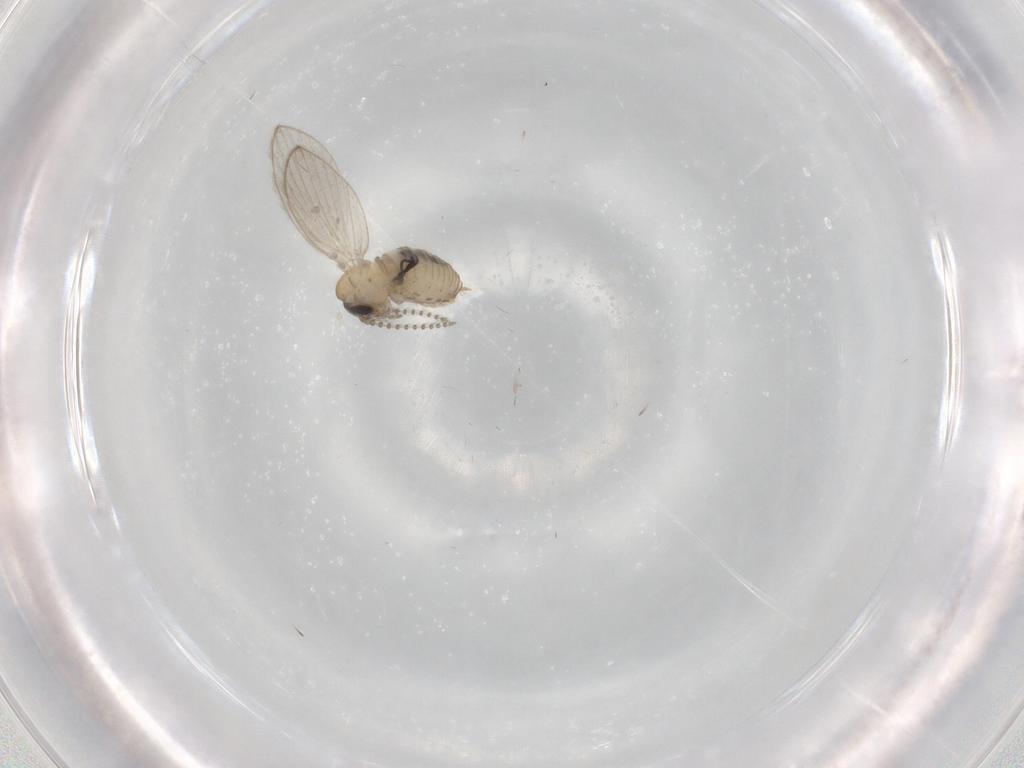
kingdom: Animalia
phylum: Arthropoda
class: Insecta
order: Diptera
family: Psychodidae
